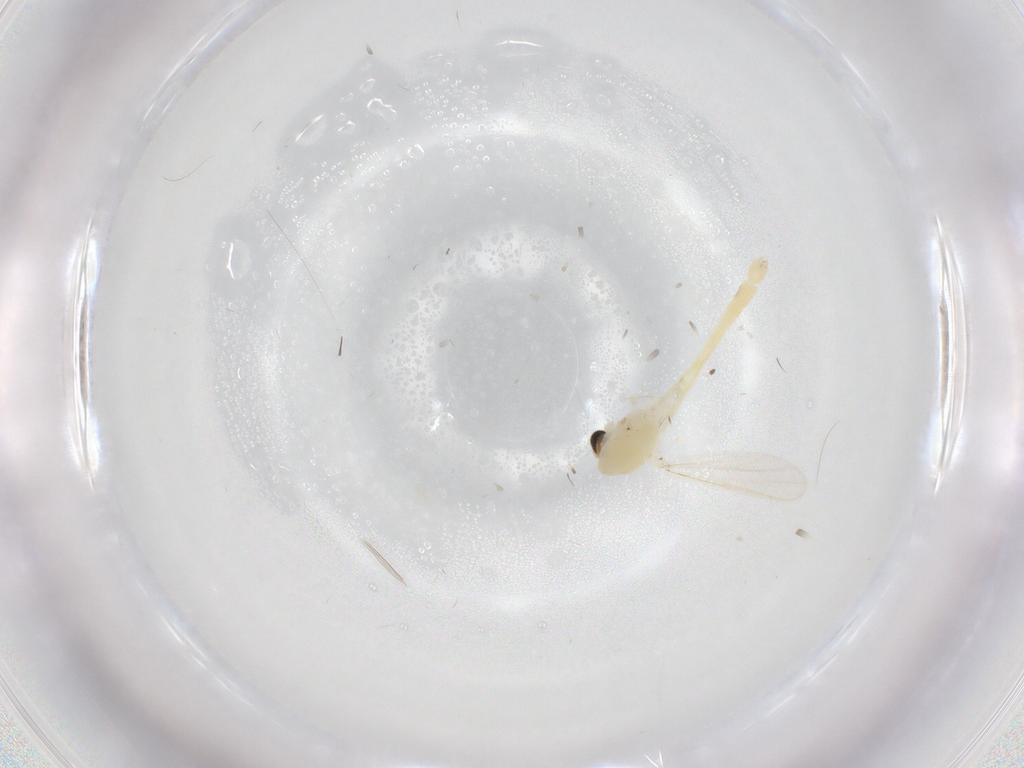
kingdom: Animalia
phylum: Arthropoda
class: Insecta
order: Diptera
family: Chironomidae
